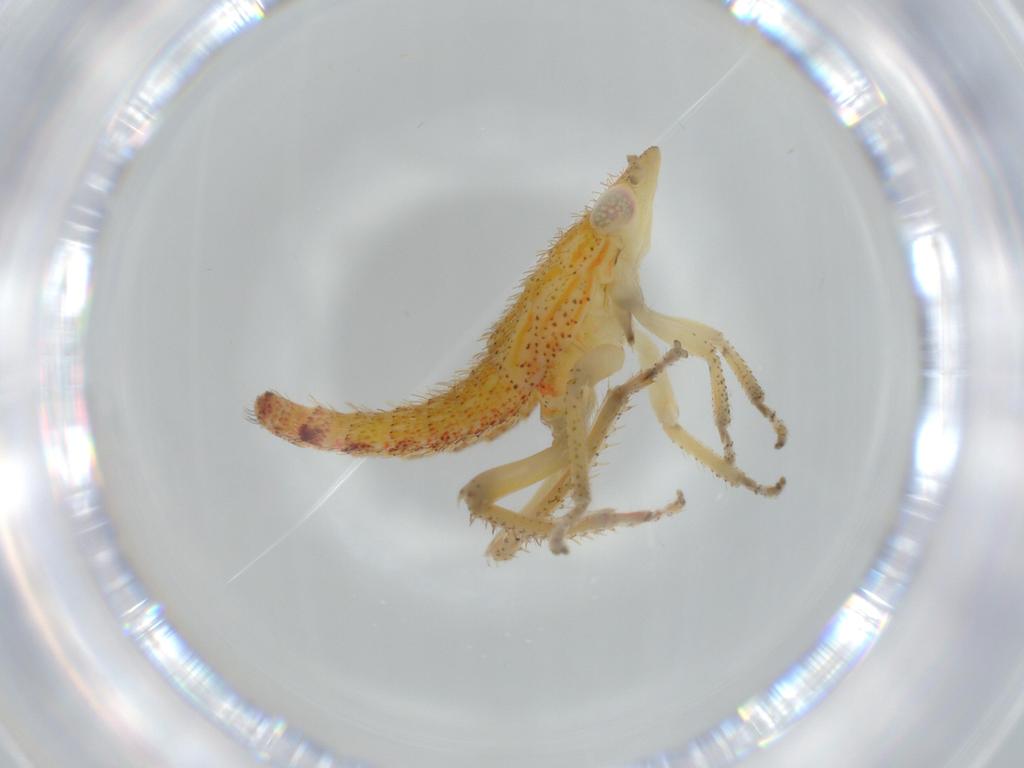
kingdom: Animalia
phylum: Arthropoda
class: Insecta
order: Hemiptera
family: Cicadellidae
